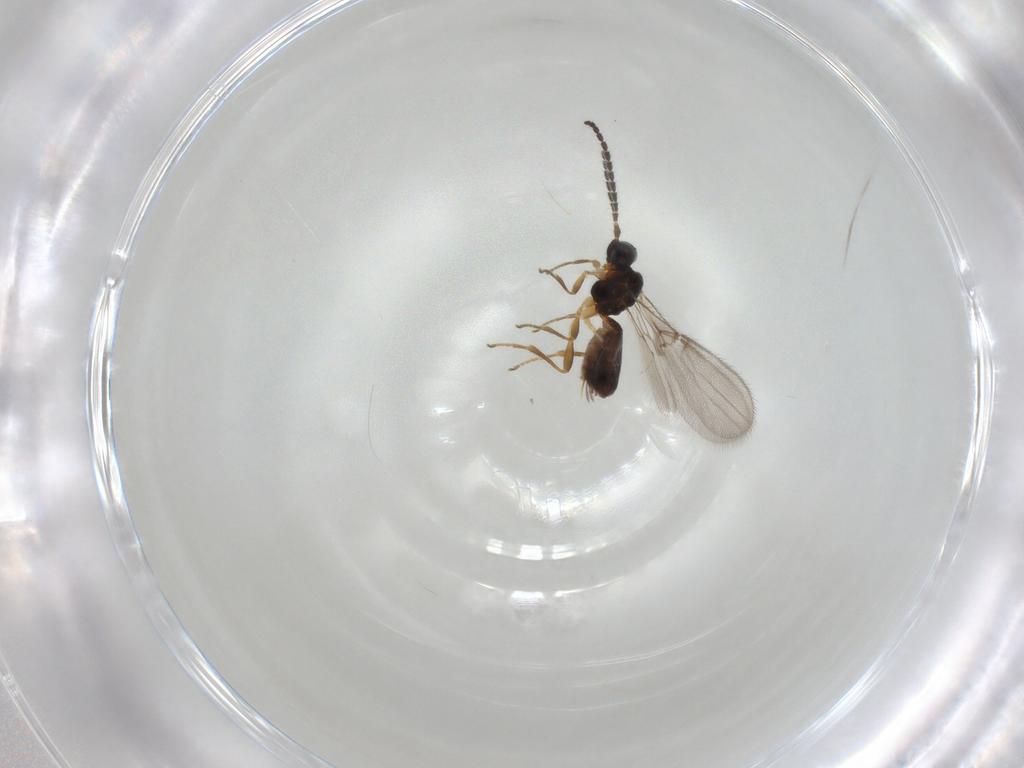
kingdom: Animalia
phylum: Arthropoda
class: Insecta
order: Hymenoptera
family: Braconidae
